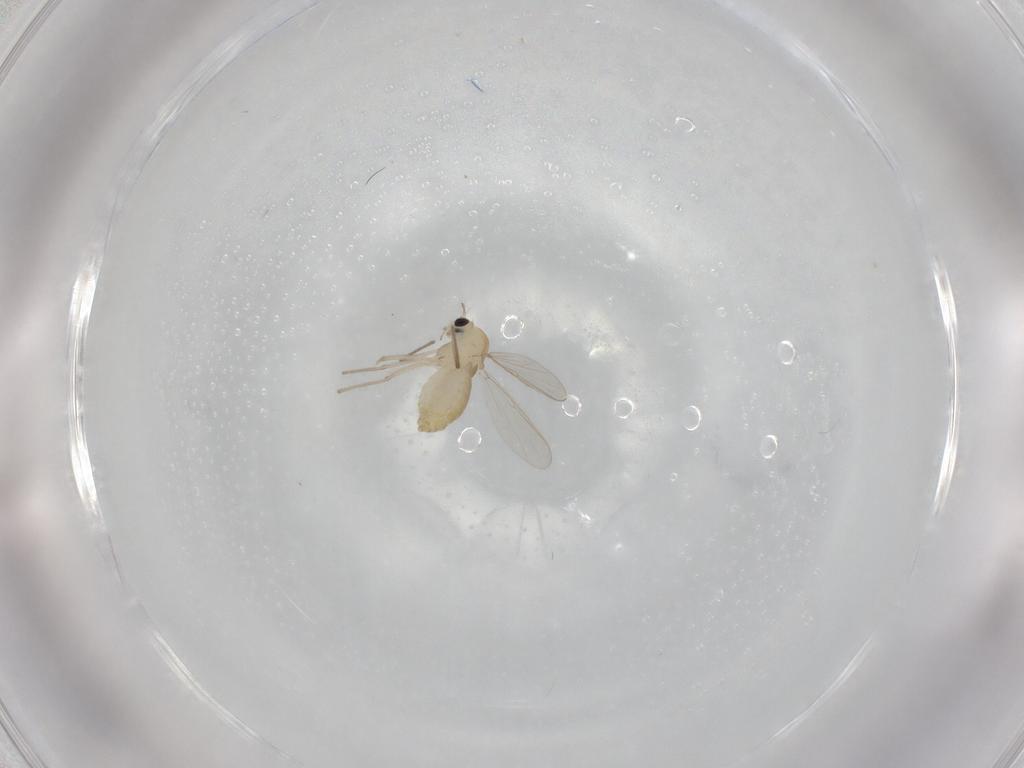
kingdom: Animalia
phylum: Arthropoda
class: Insecta
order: Diptera
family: Chironomidae
